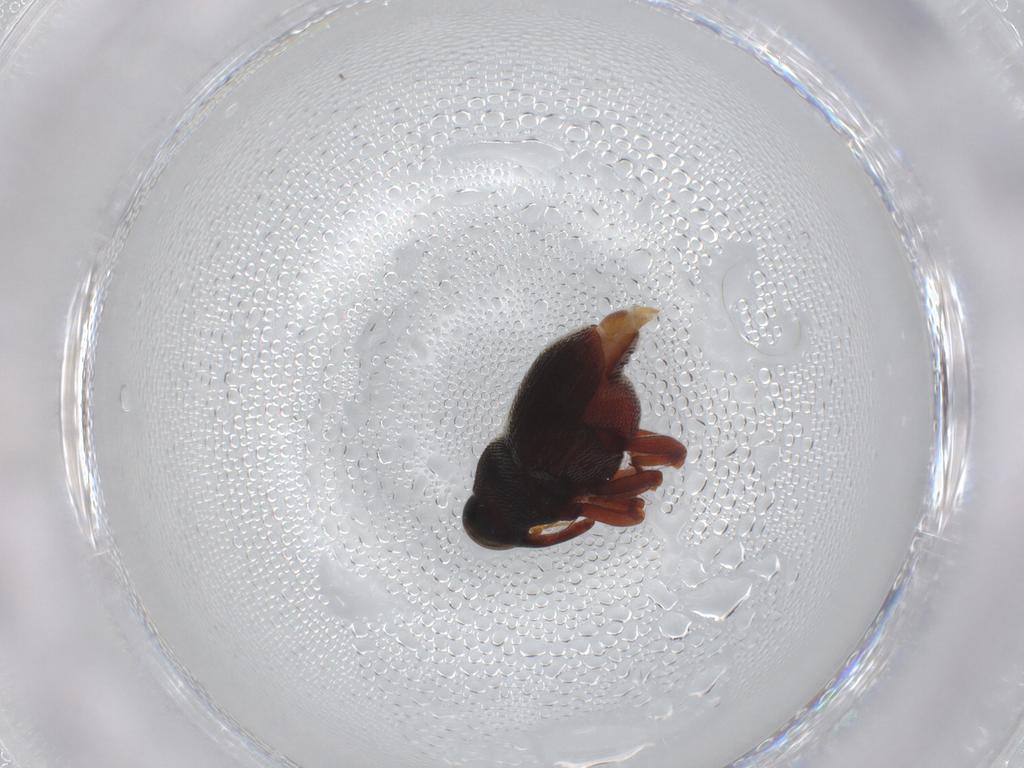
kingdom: Animalia
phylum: Arthropoda
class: Insecta
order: Coleoptera
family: Curculionidae
